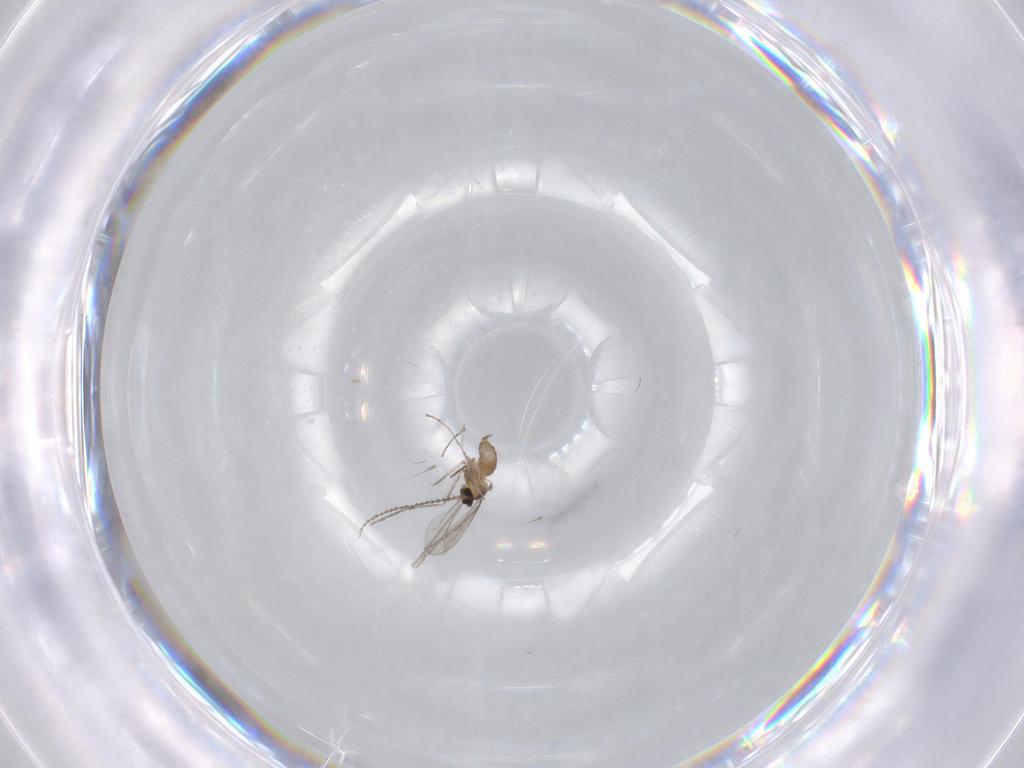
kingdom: Animalia
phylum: Arthropoda
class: Insecta
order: Diptera
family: Cecidomyiidae
